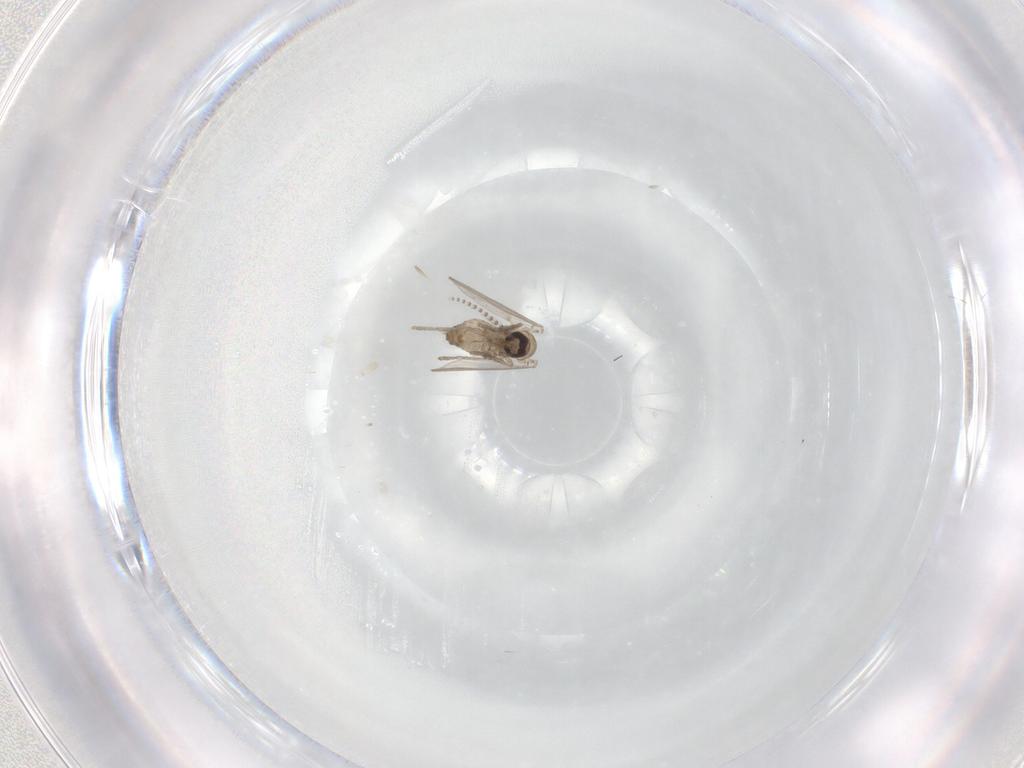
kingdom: Animalia
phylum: Arthropoda
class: Insecta
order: Diptera
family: Psychodidae
